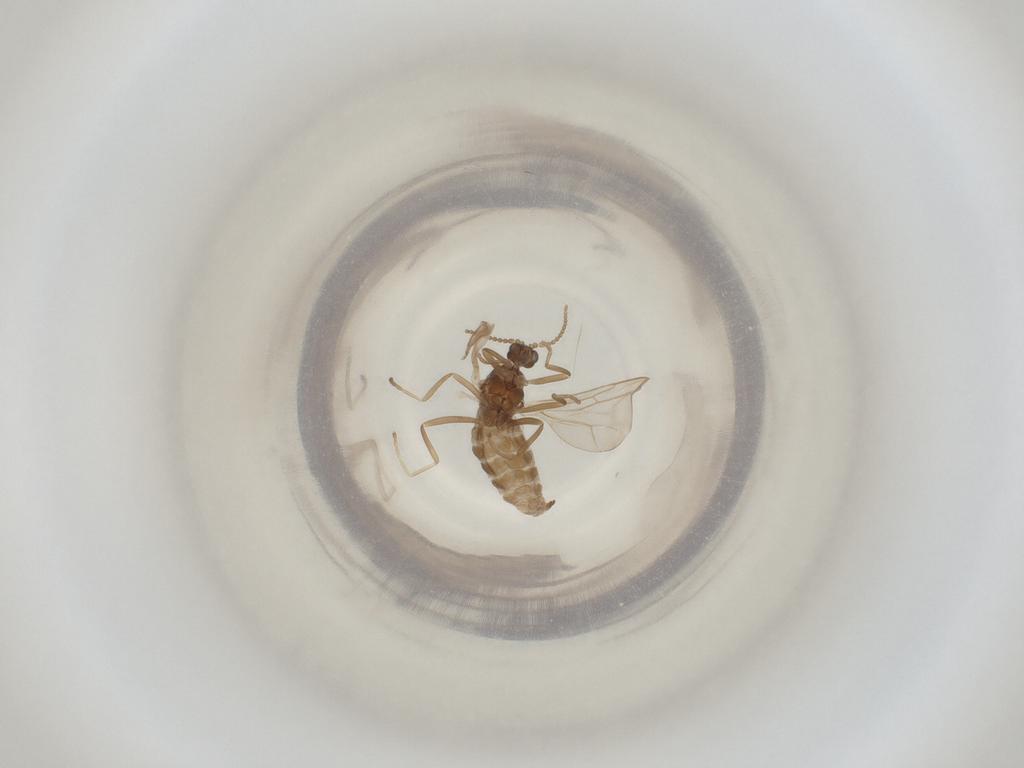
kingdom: Animalia
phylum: Arthropoda
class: Insecta
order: Diptera
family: Cecidomyiidae
